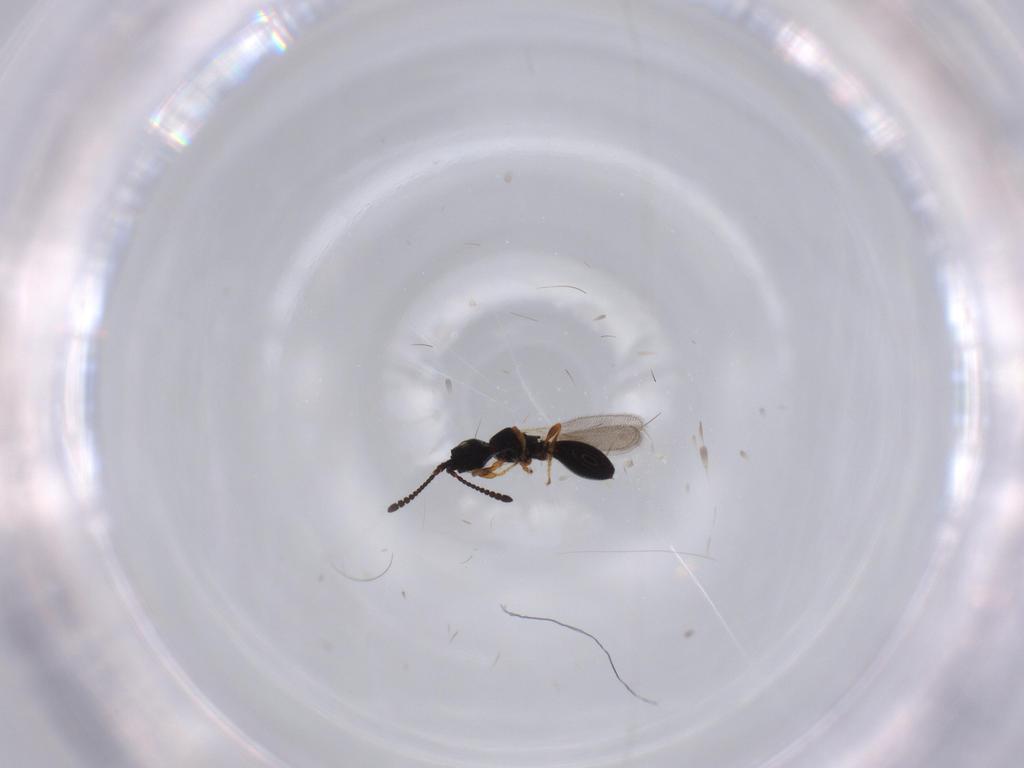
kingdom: Animalia
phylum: Arthropoda
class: Insecta
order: Hymenoptera
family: Diapriidae
